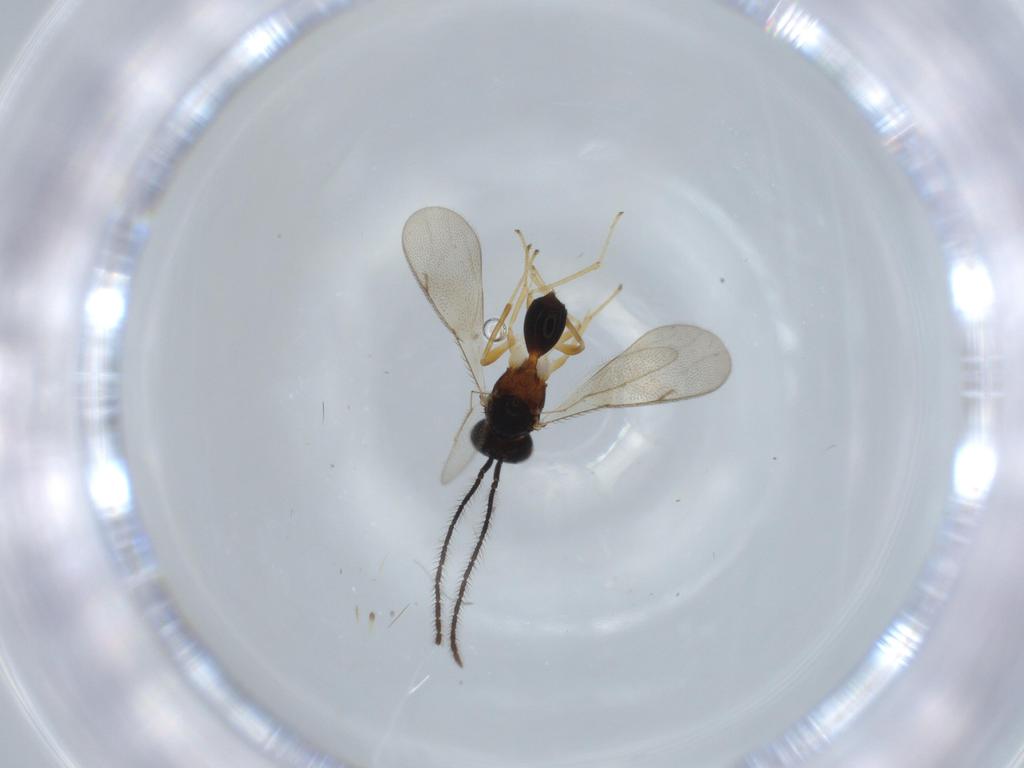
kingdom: Animalia
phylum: Arthropoda
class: Insecta
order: Hymenoptera
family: Diparidae
